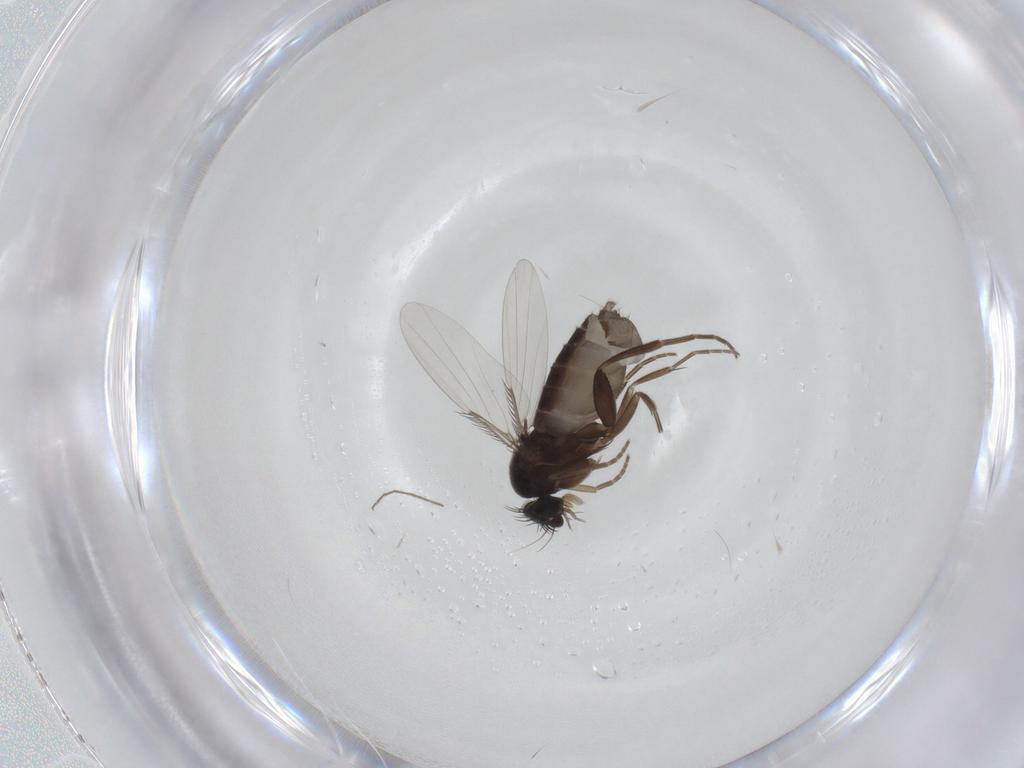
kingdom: Animalia
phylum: Arthropoda
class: Insecta
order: Diptera
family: Phoridae
